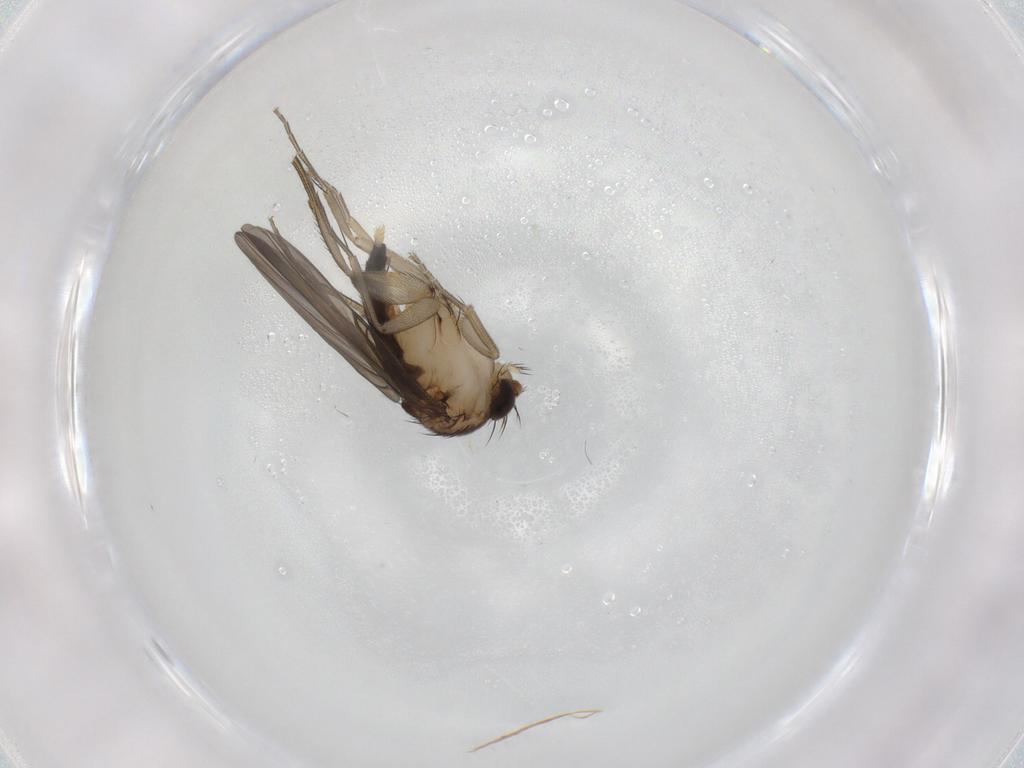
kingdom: Animalia
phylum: Arthropoda
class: Insecta
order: Diptera
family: Phoridae
